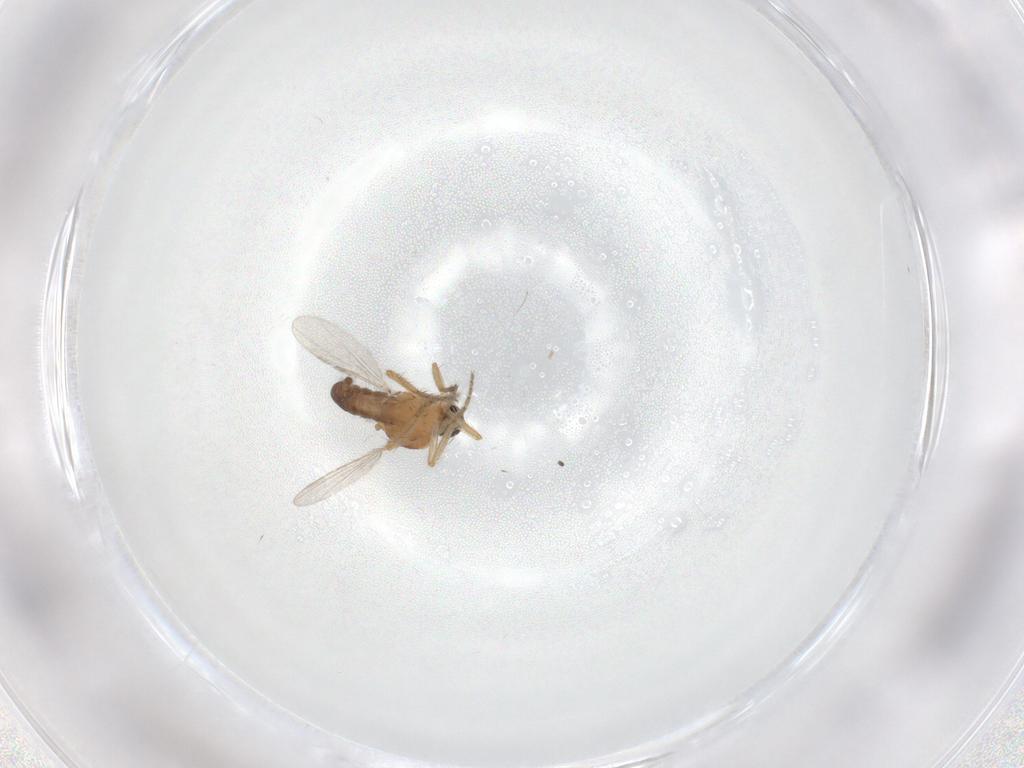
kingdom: Animalia
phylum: Arthropoda
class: Insecta
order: Diptera
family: Ceratopogonidae
